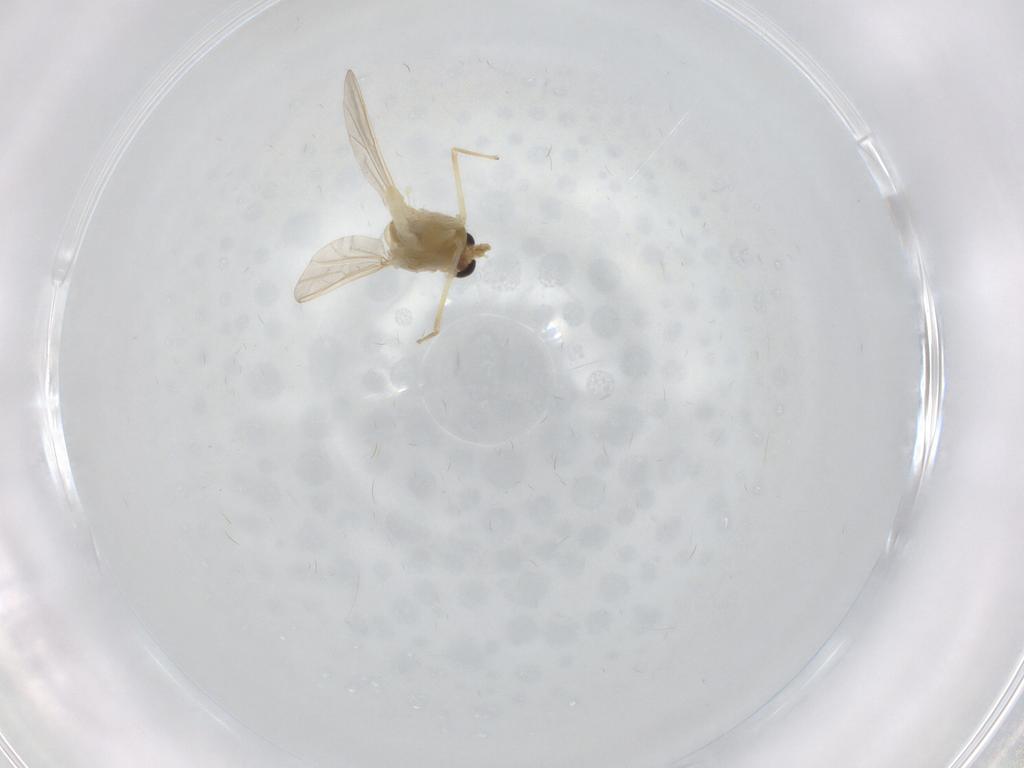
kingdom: Animalia
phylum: Arthropoda
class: Insecta
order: Diptera
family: Chironomidae
